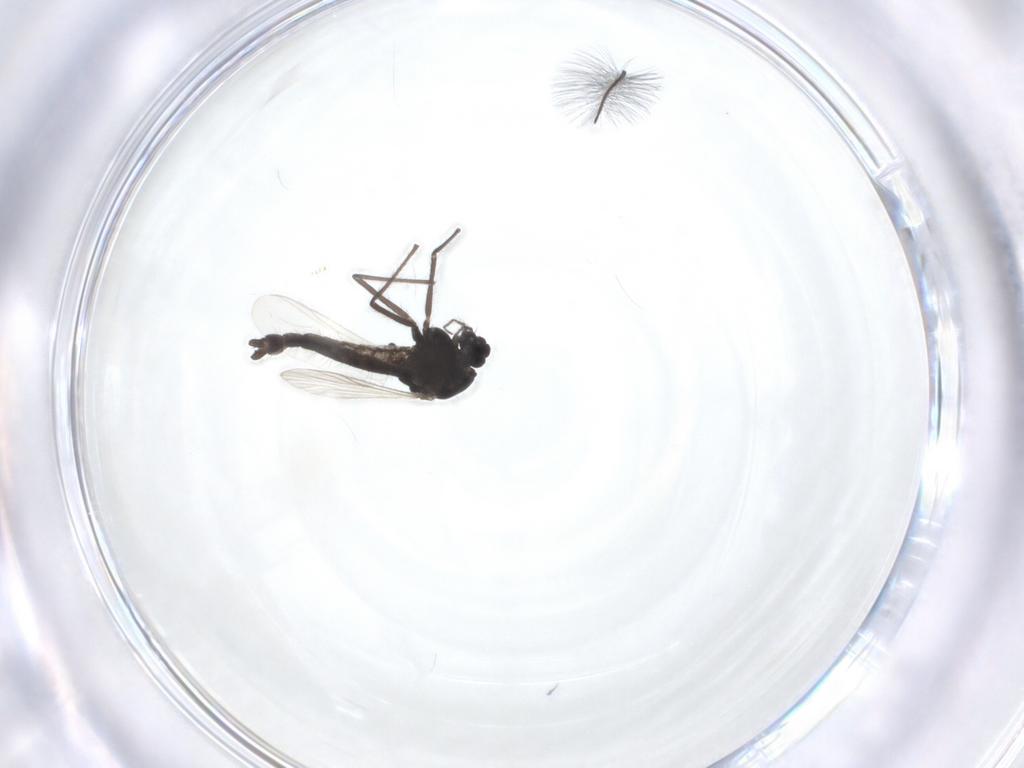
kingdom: Animalia
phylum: Arthropoda
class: Insecta
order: Diptera
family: Chironomidae
